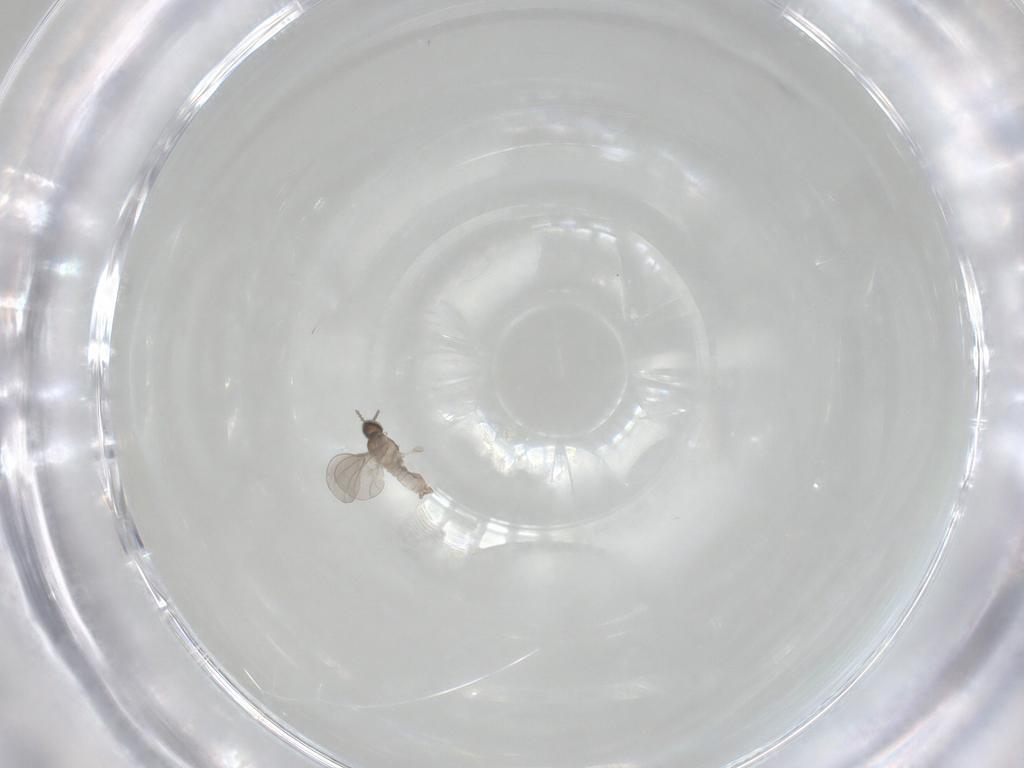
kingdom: Animalia
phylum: Arthropoda
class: Insecta
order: Diptera
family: Cecidomyiidae
